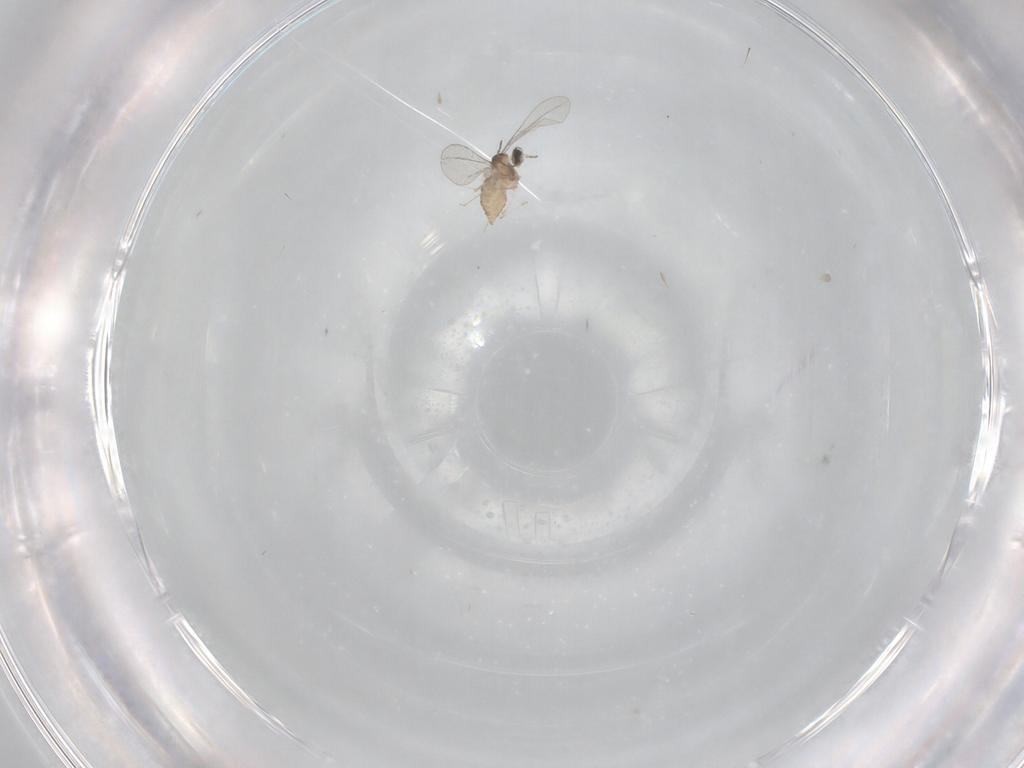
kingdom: Animalia
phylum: Arthropoda
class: Insecta
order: Diptera
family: Cecidomyiidae
